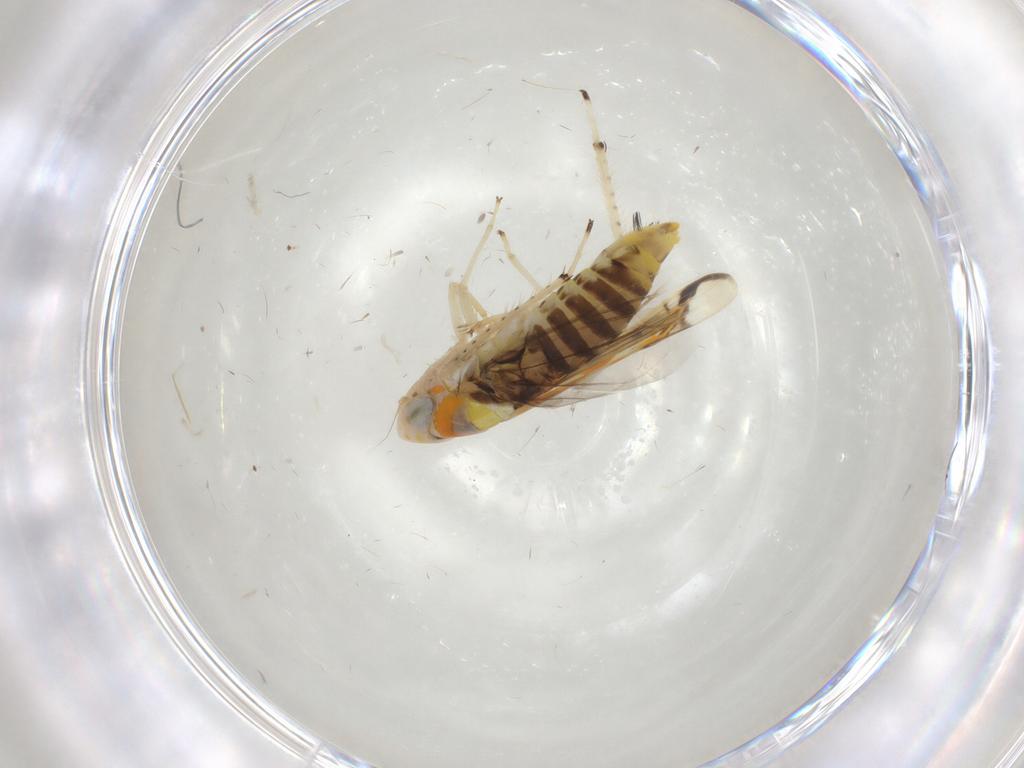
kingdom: Animalia
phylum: Arthropoda
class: Insecta
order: Hemiptera
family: Cicadellidae
